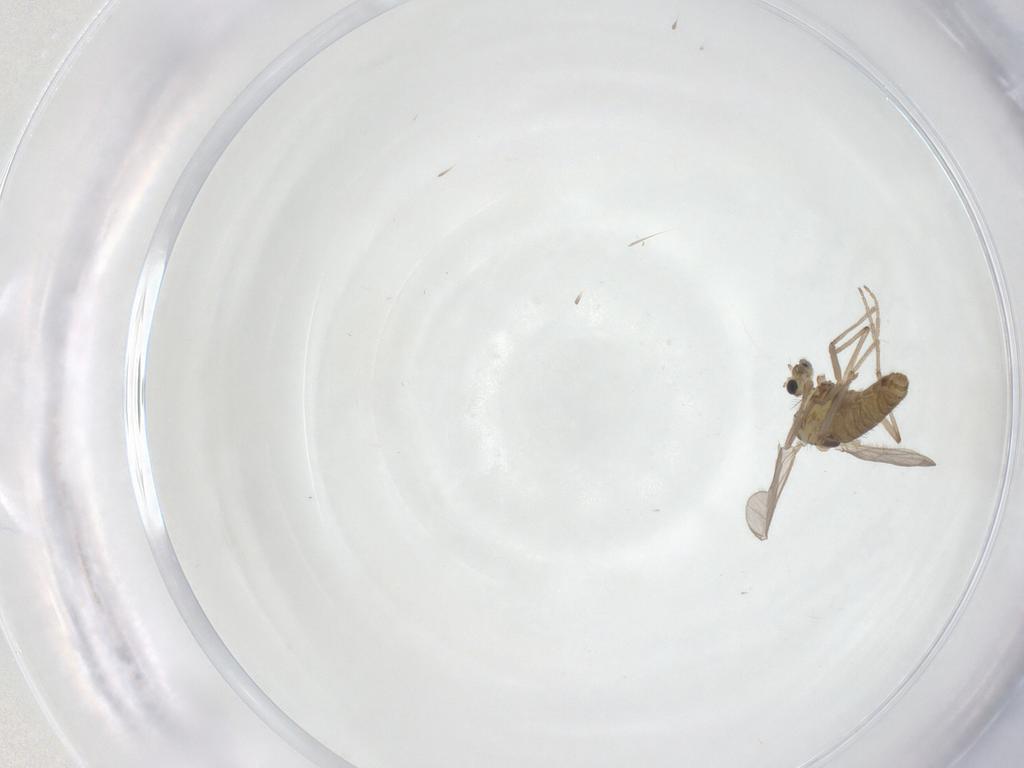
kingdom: Animalia
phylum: Arthropoda
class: Insecta
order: Diptera
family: Chironomidae
